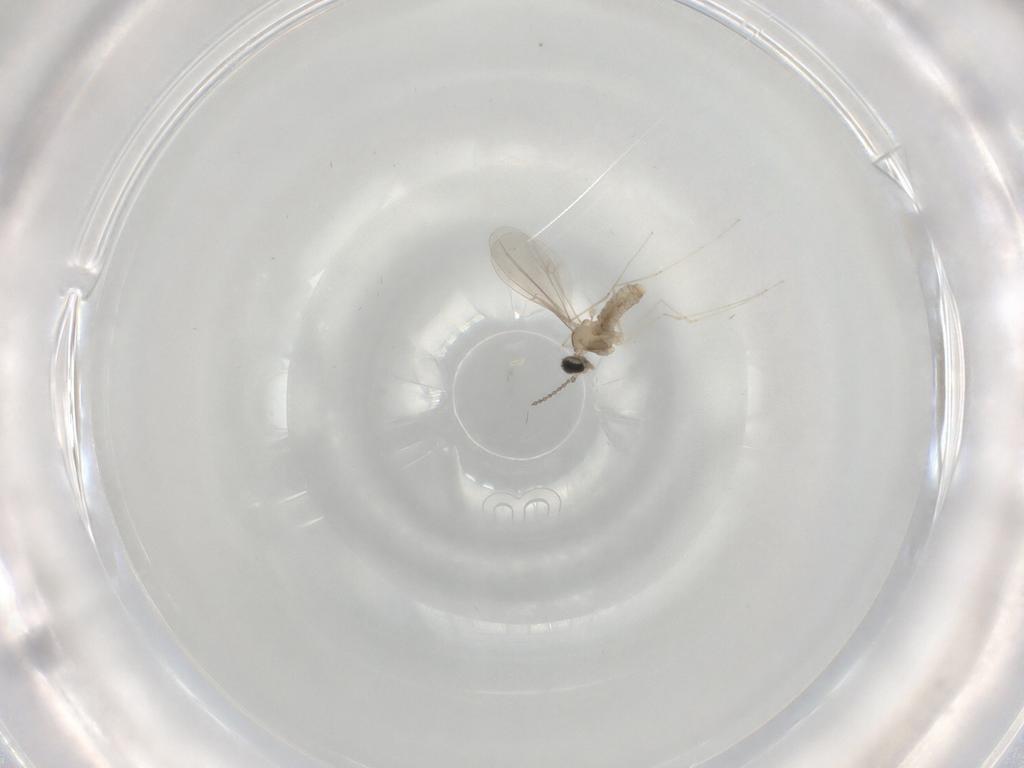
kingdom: Animalia
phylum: Arthropoda
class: Insecta
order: Diptera
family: Cecidomyiidae
